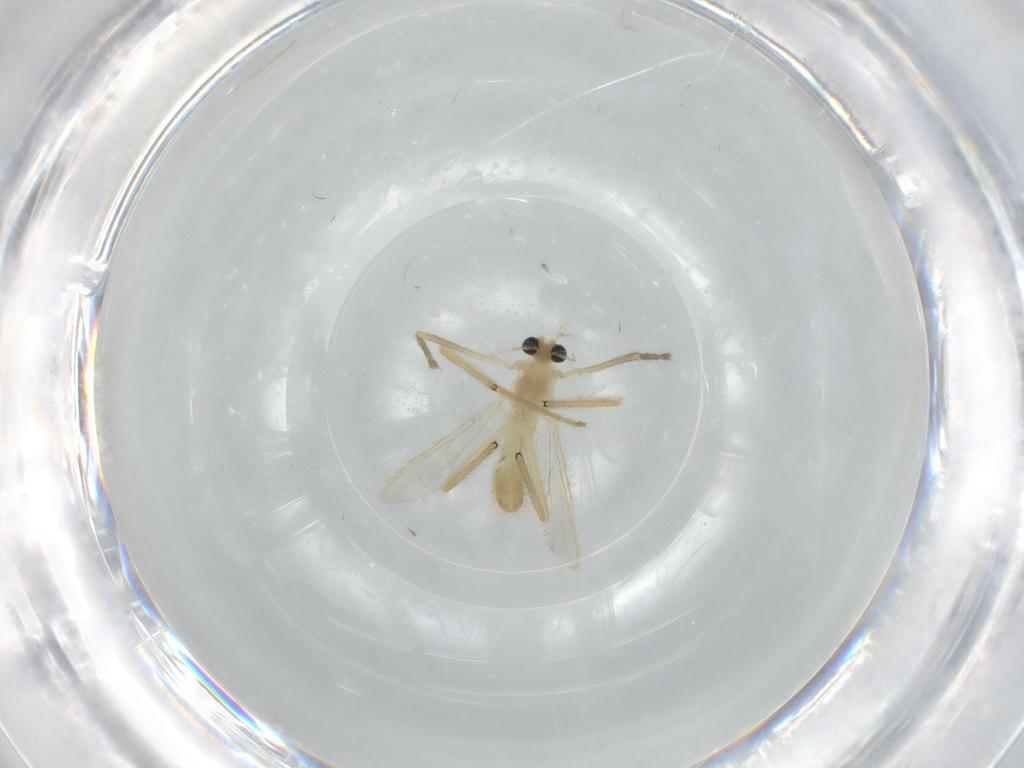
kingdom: Animalia
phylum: Arthropoda
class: Insecta
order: Diptera
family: Chironomidae
